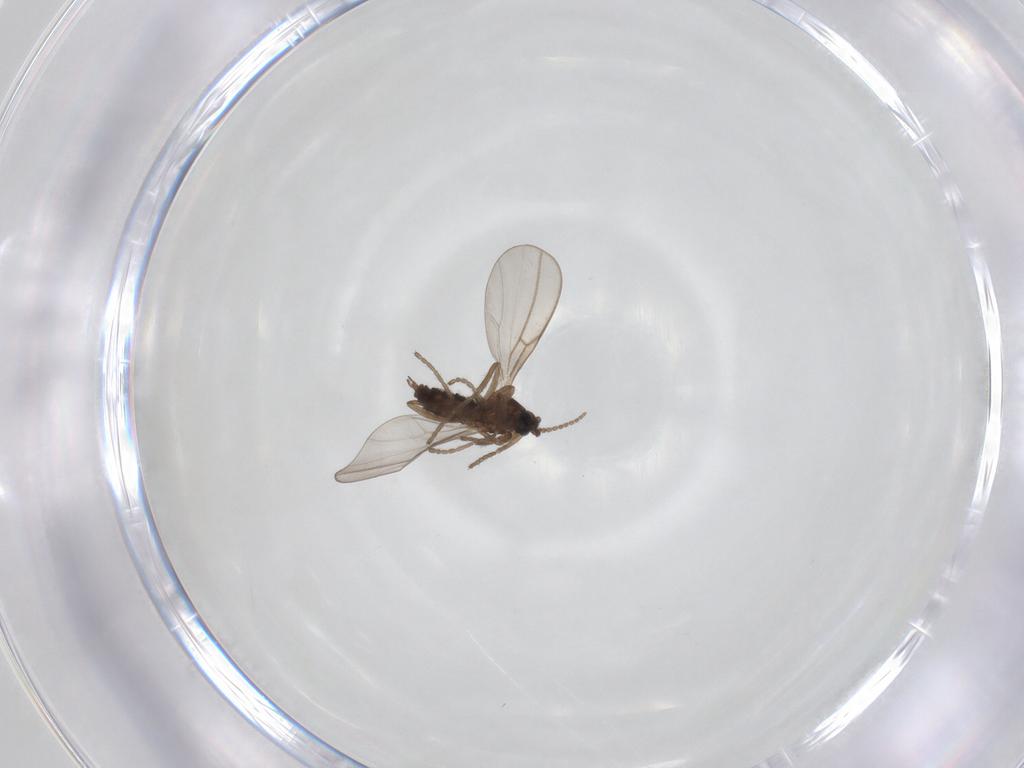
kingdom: Animalia
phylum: Arthropoda
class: Insecta
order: Diptera
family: Cecidomyiidae
